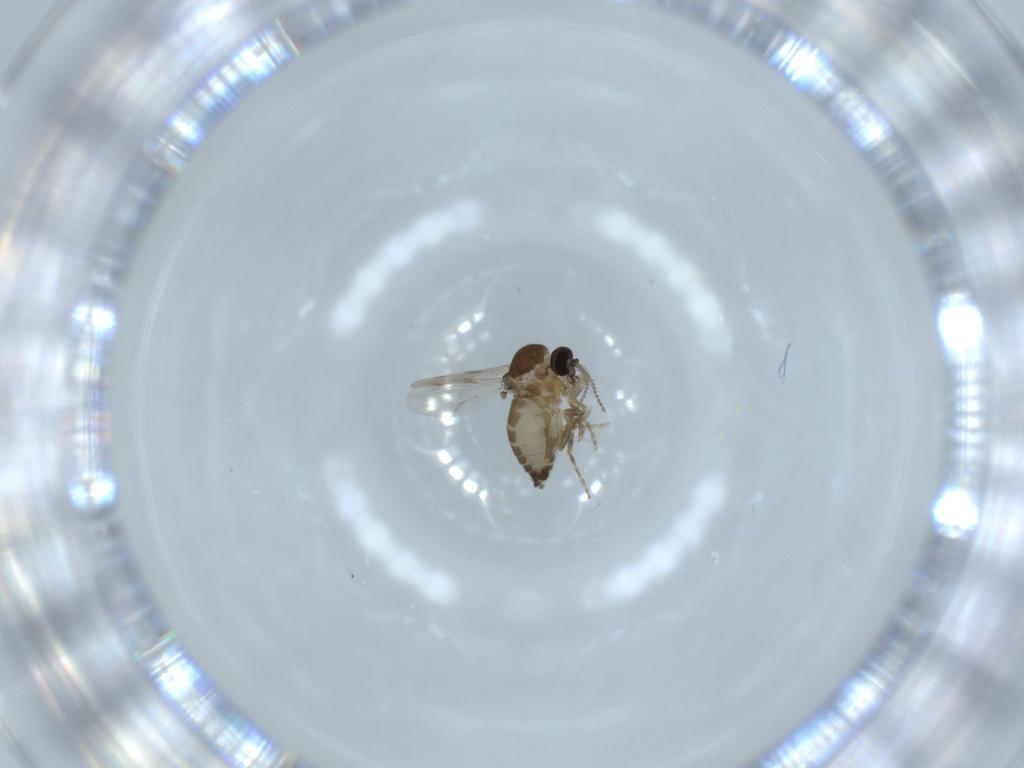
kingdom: Animalia
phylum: Arthropoda
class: Insecta
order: Diptera
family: Ceratopogonidae
